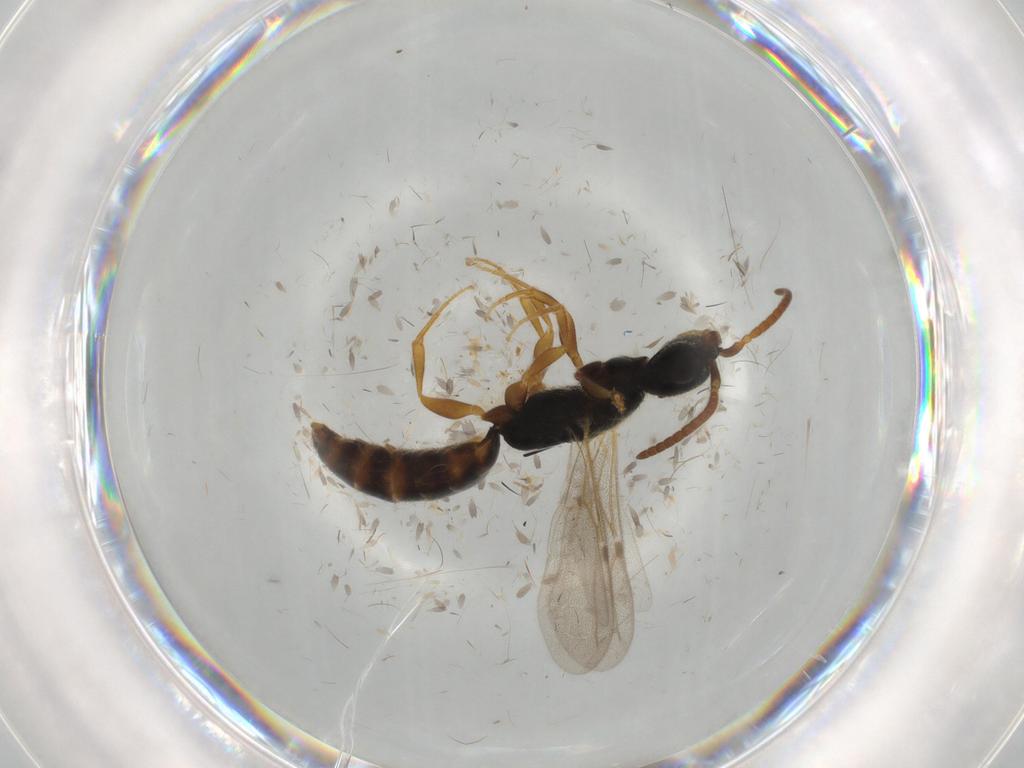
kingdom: Animalia
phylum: Arthropoda
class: Insecta
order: Hymenoptera
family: Bethylidae
